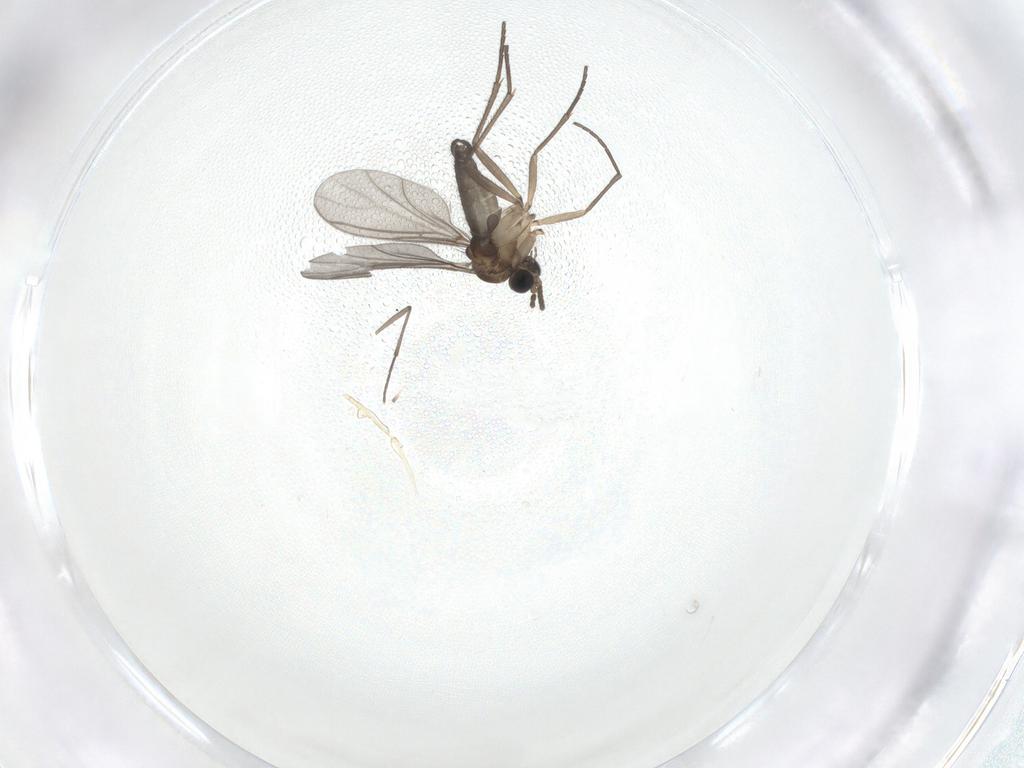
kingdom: Animalia
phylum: Arthropoda
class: Insecta
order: Diptera
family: Sciaridae
